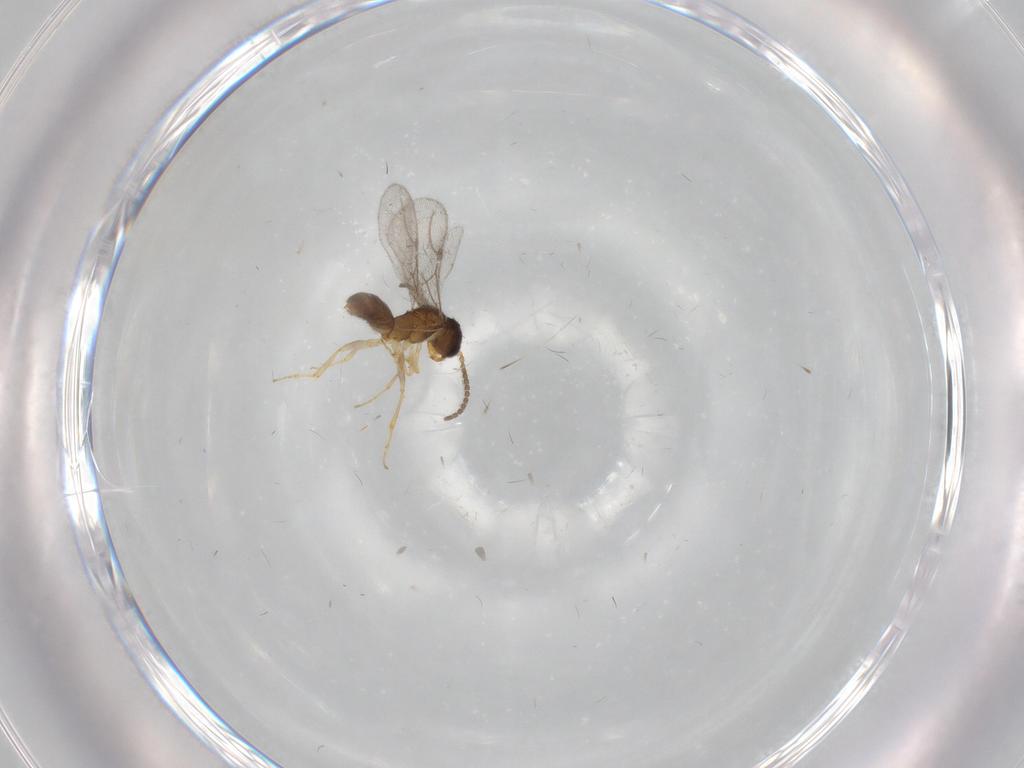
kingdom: Animalia
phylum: Arthropoda
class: Insecta
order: Hymenoptera
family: Bethylidae
